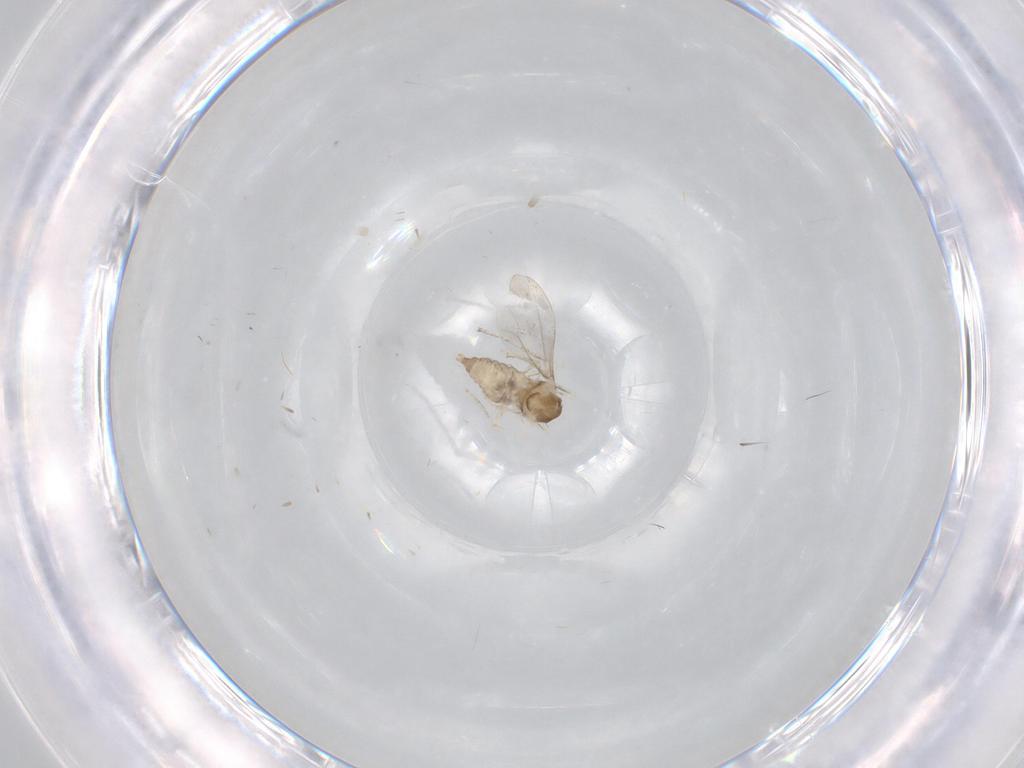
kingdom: Animalia
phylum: Arthropoda
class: Insecta
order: Diptera
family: Cecidomyiidae
